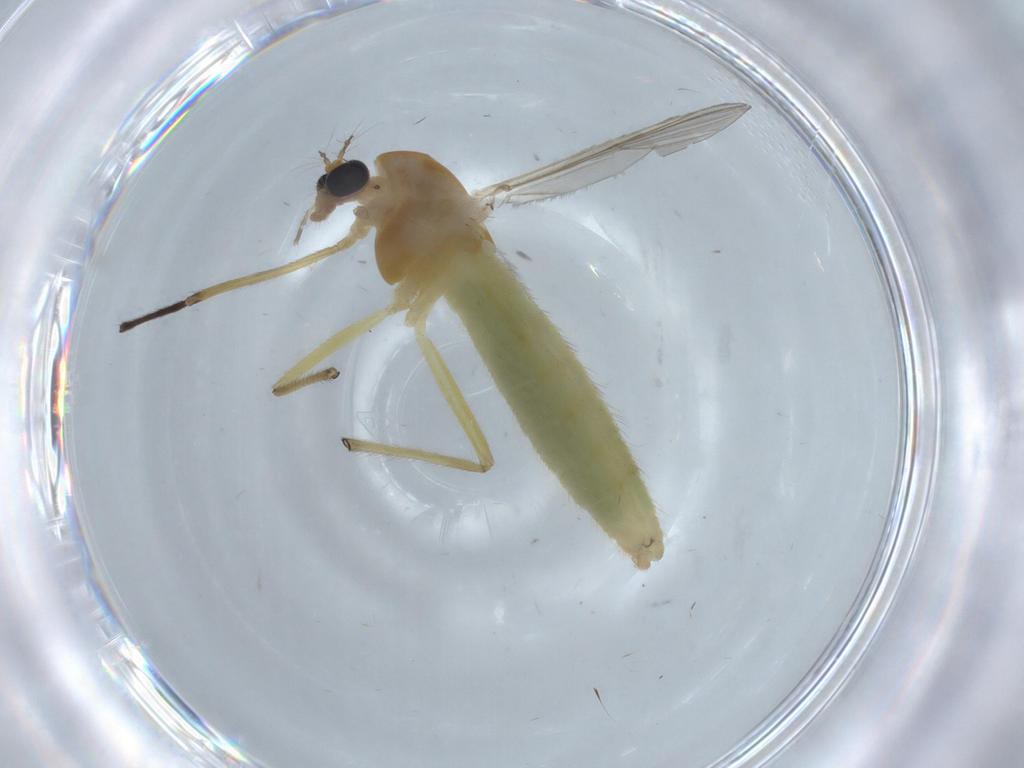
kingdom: Animalia
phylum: Arthropoda
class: Insecta
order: Diptera
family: Chironomidae
